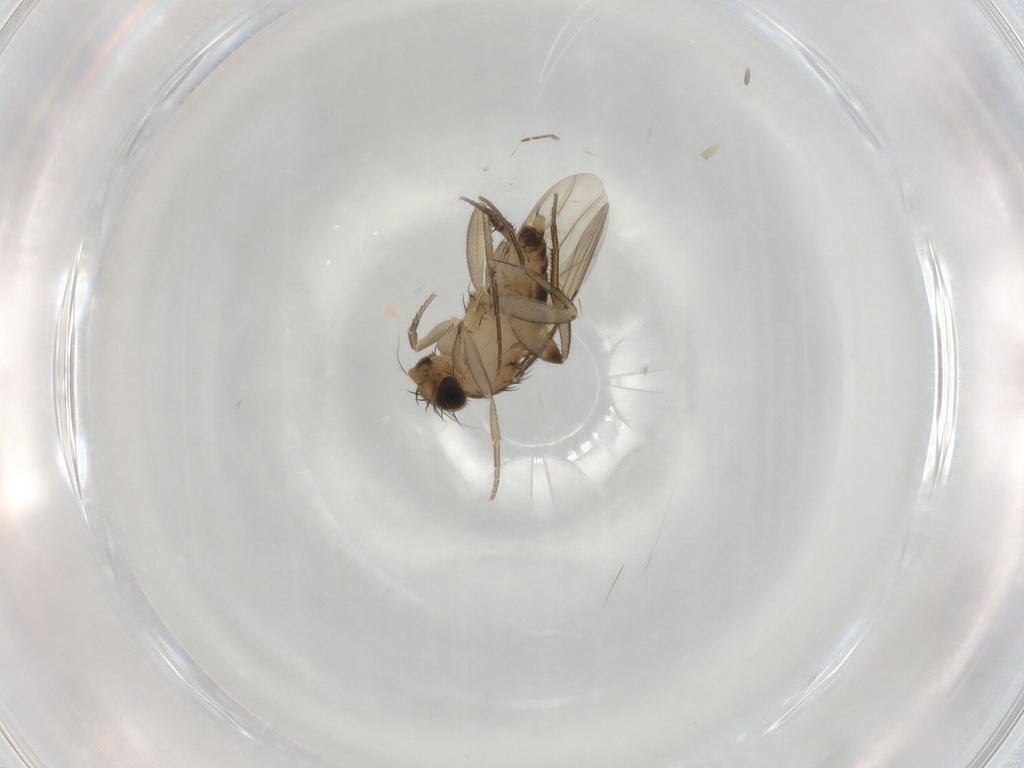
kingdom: Animalia
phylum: Arthropoda
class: Insecta
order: Diptera
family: Phoridae
